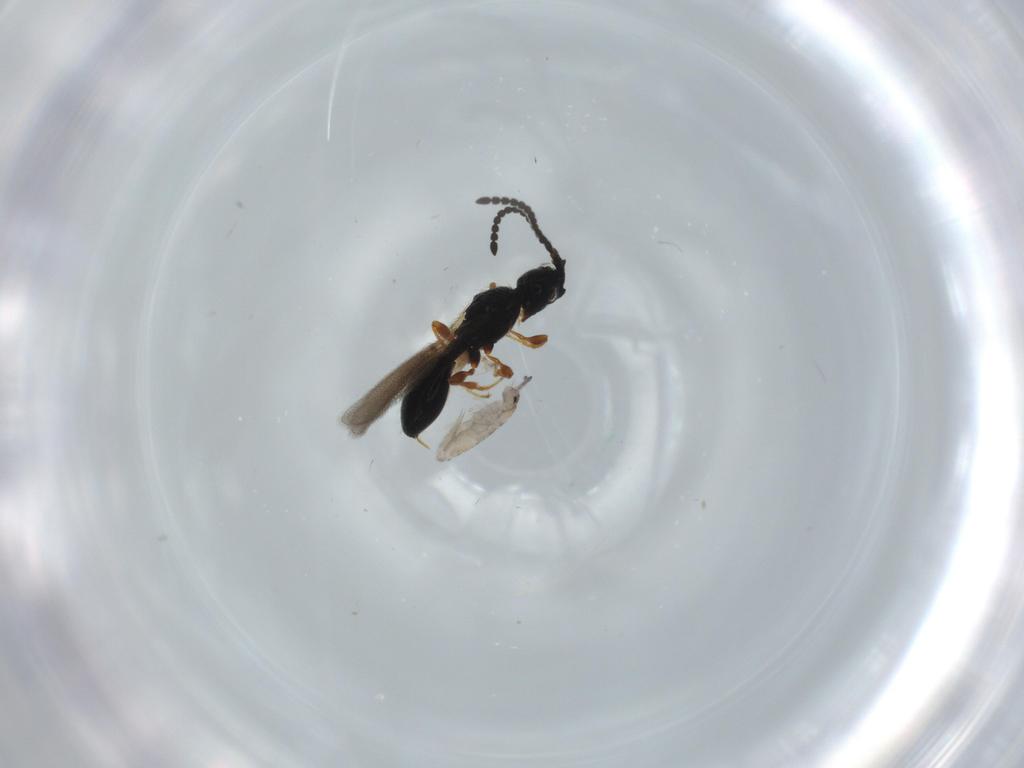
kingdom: Animalia
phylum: Arthropoda
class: Insecta
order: Hymenoptera
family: Diapriidae
